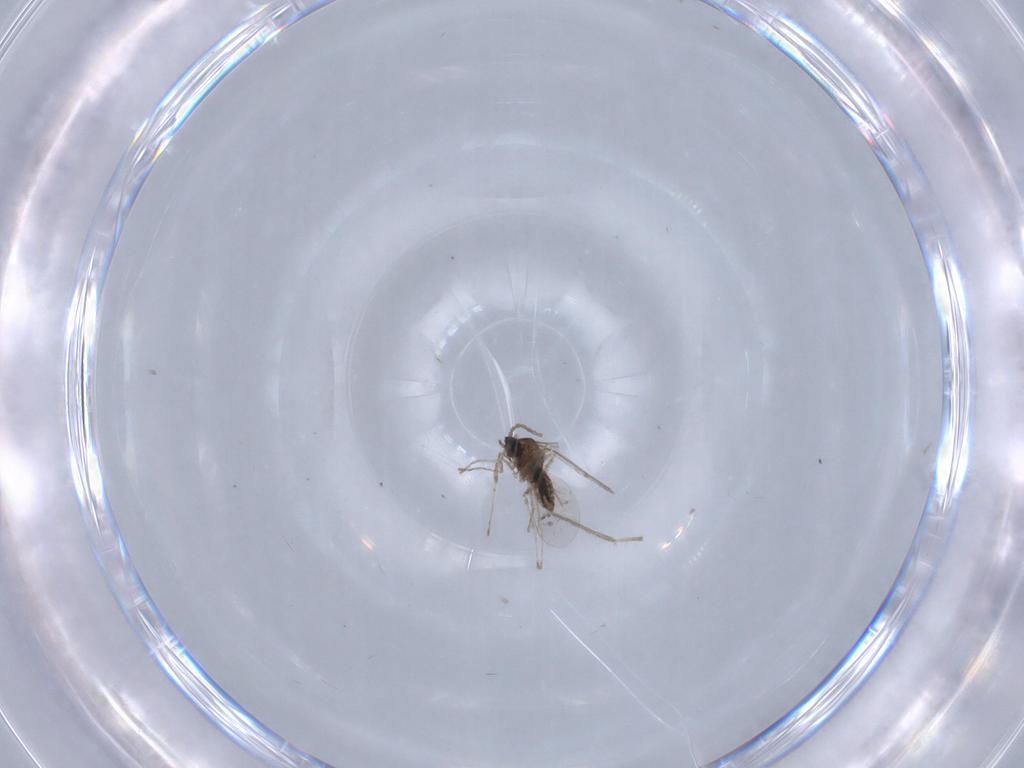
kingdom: Animalia
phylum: Arthropoda
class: Insecta
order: Diptera
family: Cecidomyiidae
